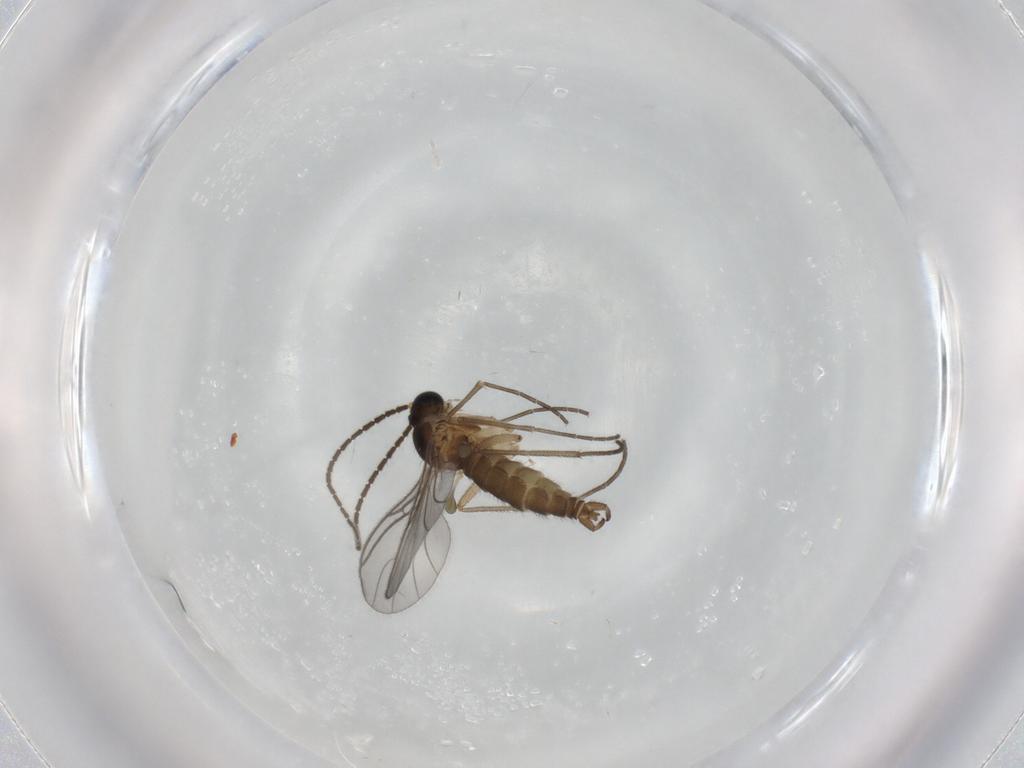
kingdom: Animalia
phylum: Arthropoda
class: Insecta
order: Diptera
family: Sciaridae
